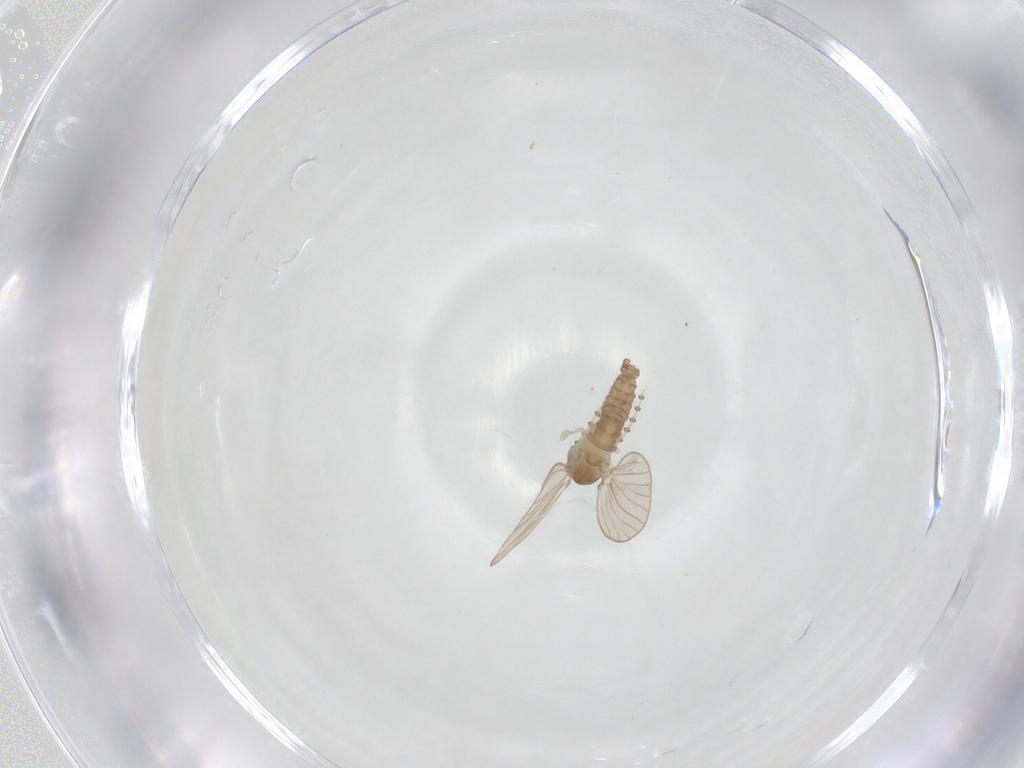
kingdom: Animalia
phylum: Arthropoda
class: Insecta
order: Diptera
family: Psychodidae
